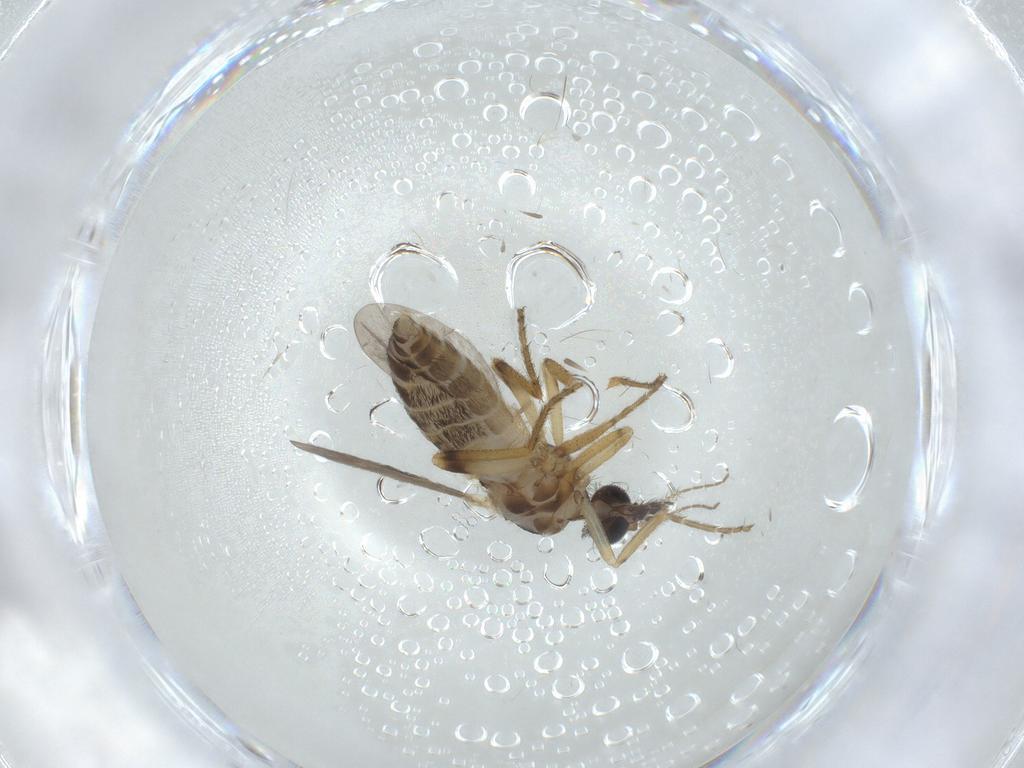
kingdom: Animalia
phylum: Arthropoda
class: Insecta
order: Diptera
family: Ceratopogonidae
